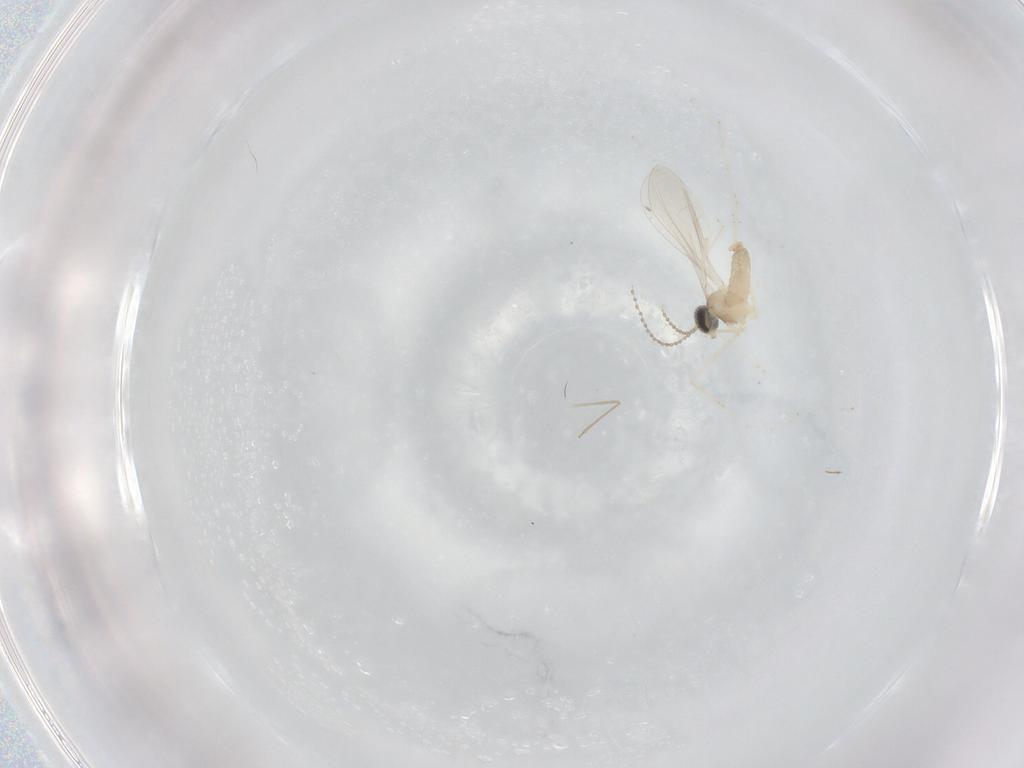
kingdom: Animalia
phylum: Arthropoda
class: Insecta
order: Diptera
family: Cecidomyiidae
